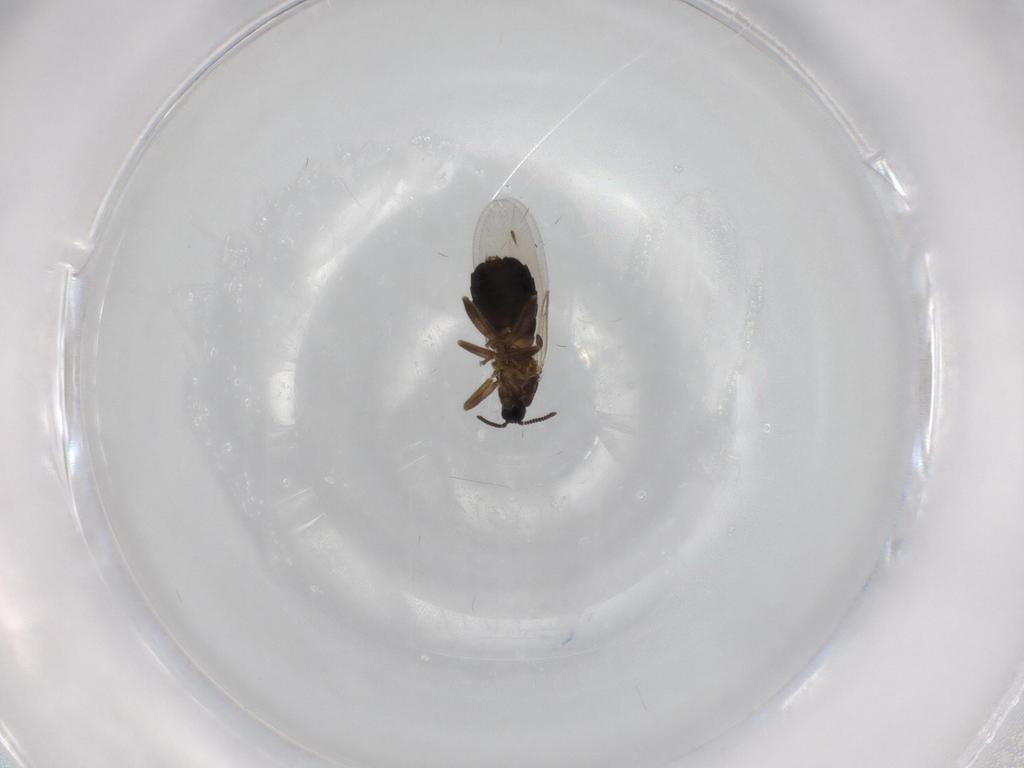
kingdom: Animalia
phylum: Arthropoda
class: Insecta
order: Diptera
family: Scatopsidae
